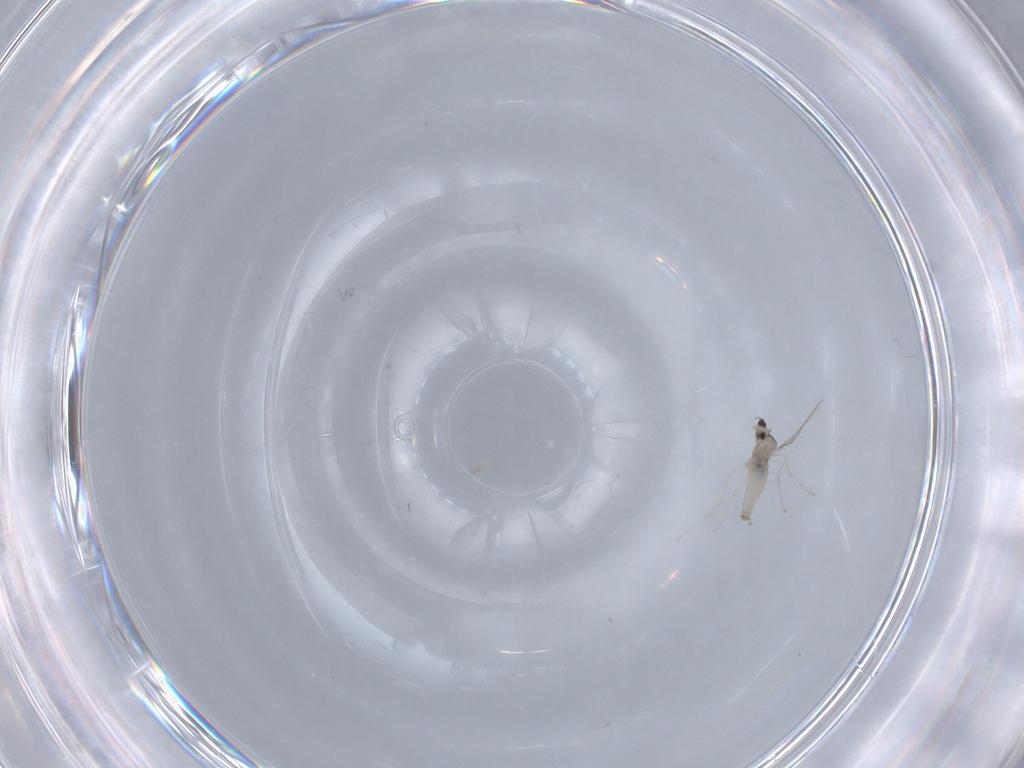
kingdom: Animalia
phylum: Arthropoda
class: Insecta
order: Diptera
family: Cecidomyiidae
